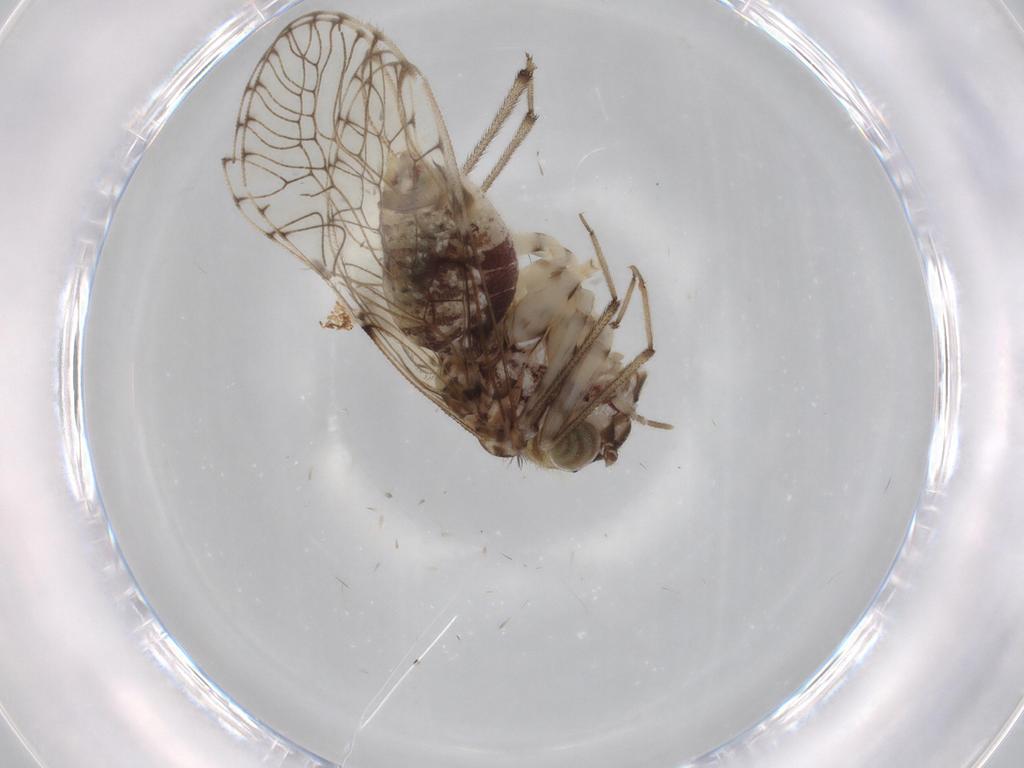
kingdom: Animalia
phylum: Arthropoda
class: Insecta
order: Psocodea
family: Lepidopsocidae
